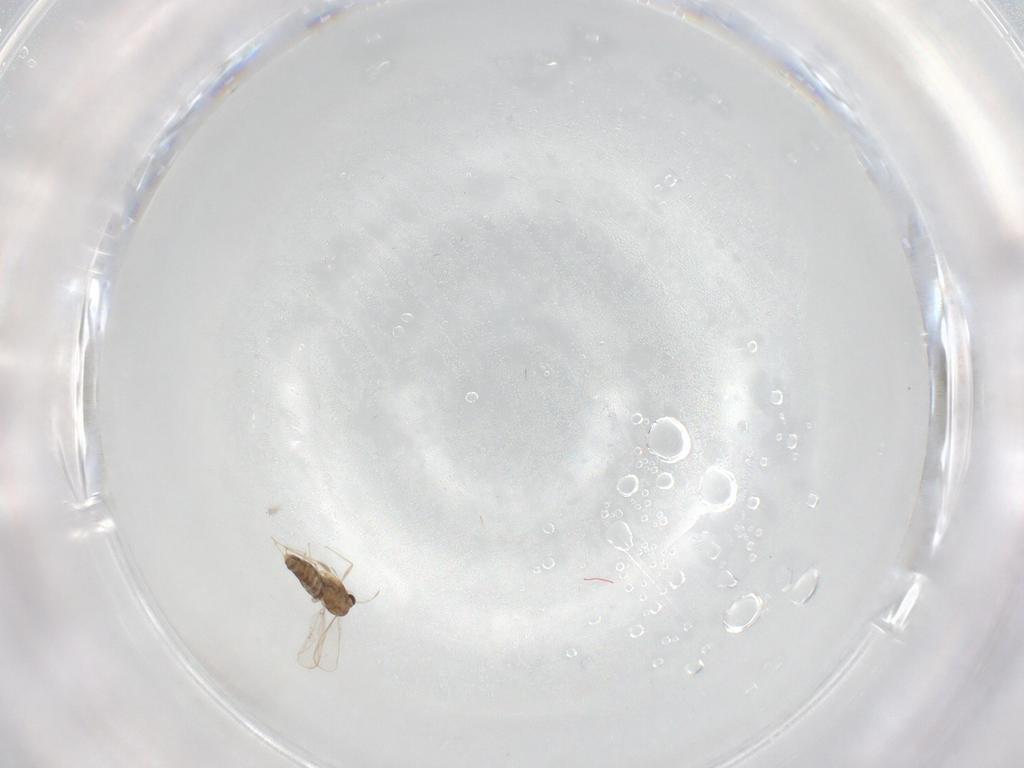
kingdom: Animalia
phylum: Arthropoda
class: Insecta
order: Diptera
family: Chironomidae
